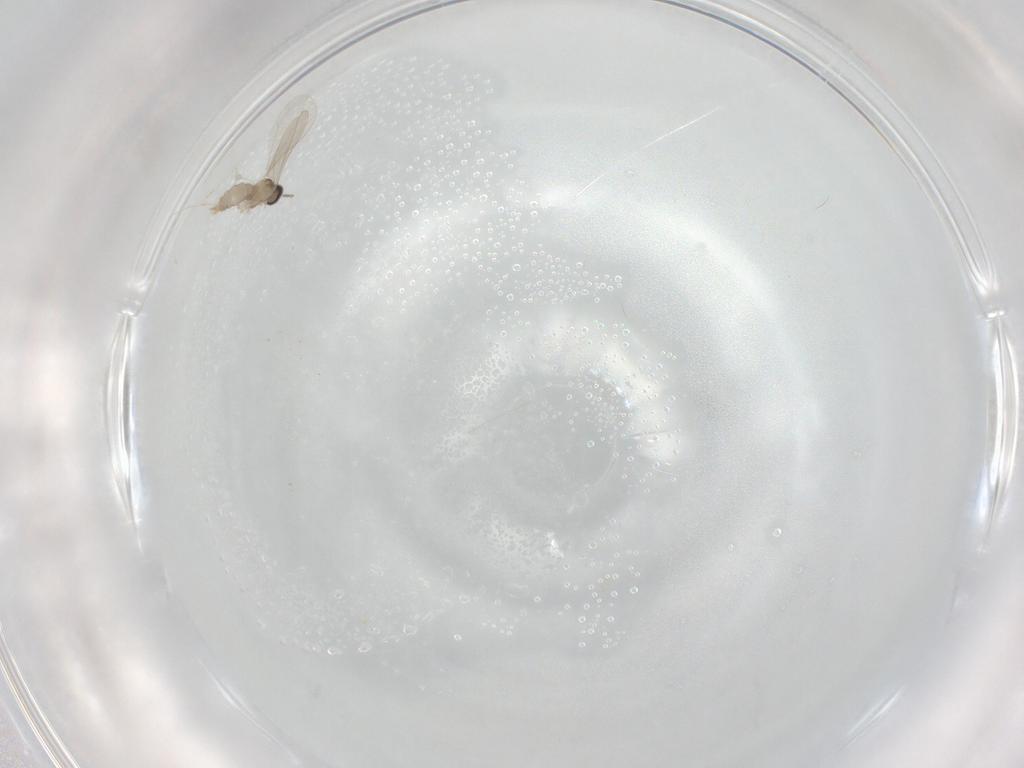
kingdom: Animalia
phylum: Arthropoda
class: Insecta
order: Diptera
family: Cecidomyiidae
